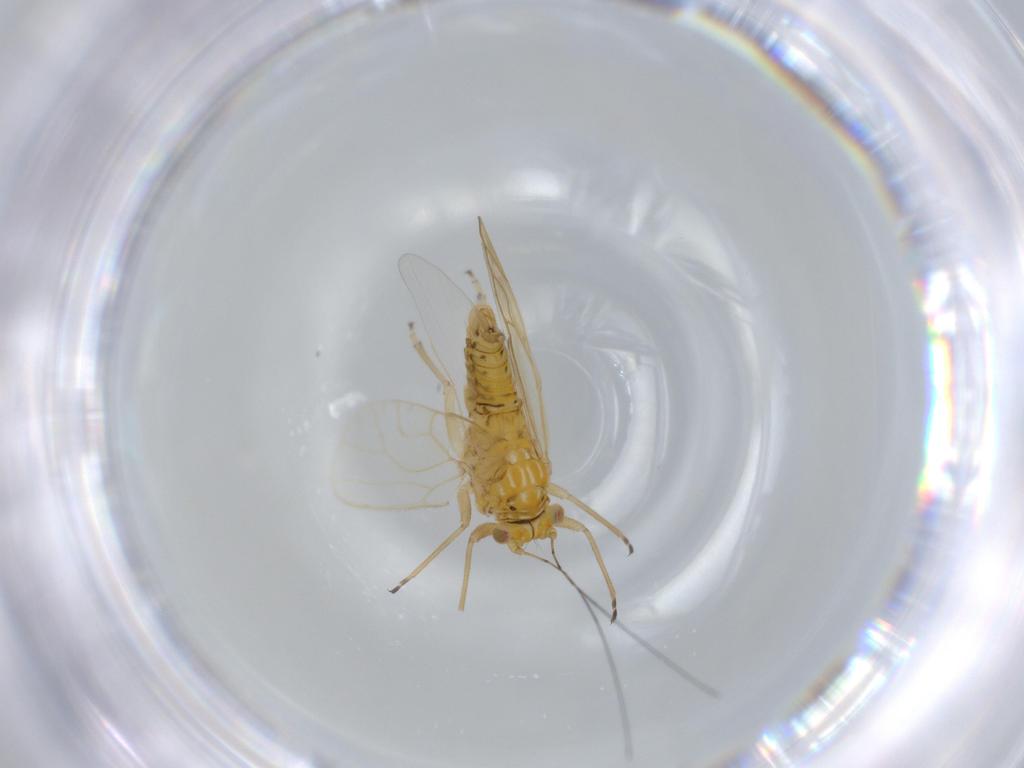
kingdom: Animalia
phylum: Arthropoda
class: Insecta
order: Hemiptera
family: Psyllidae
